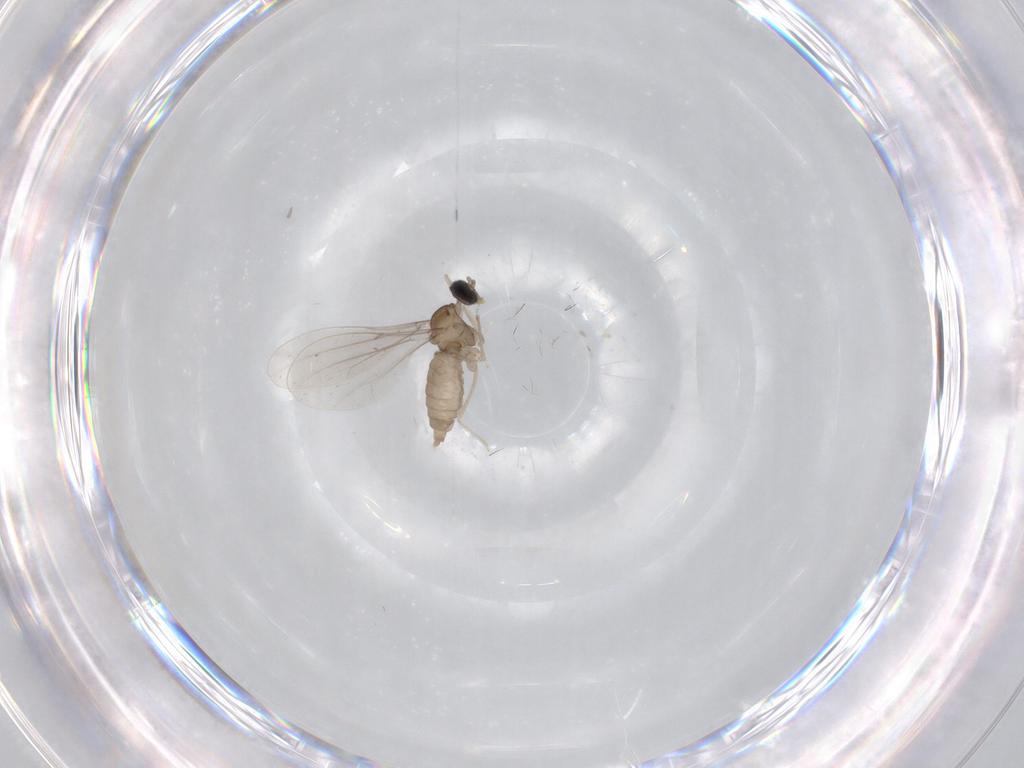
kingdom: Animalia
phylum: Arthropoda
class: Insecta
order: Diptera
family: Cecidomyiidae
